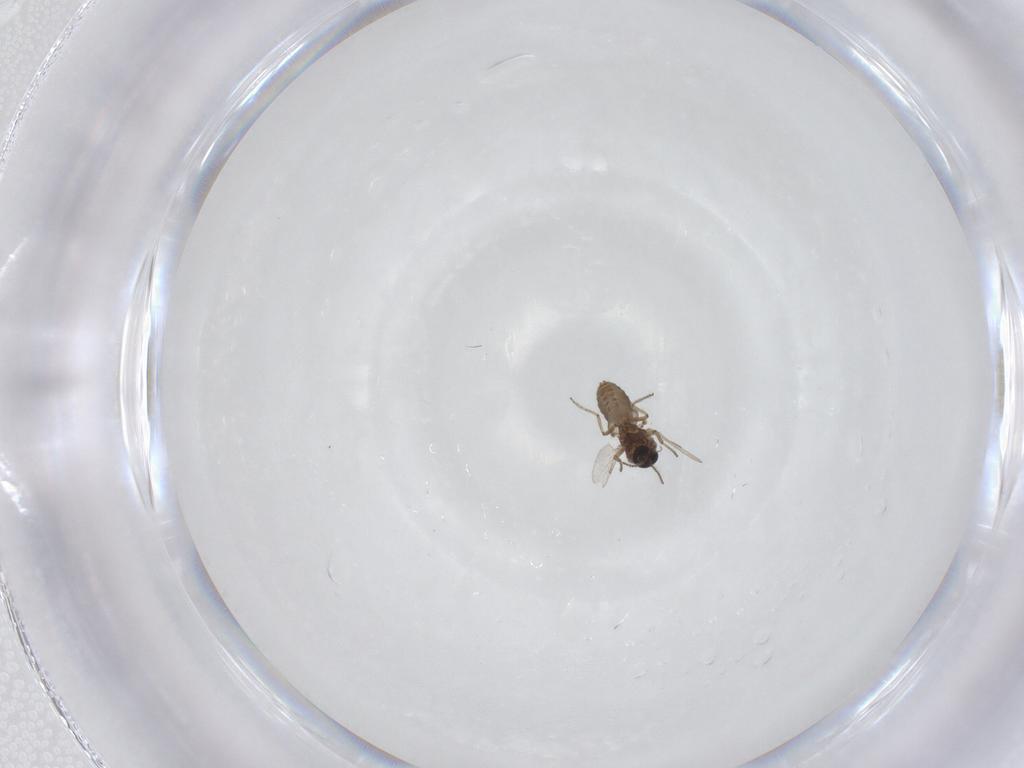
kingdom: Animalia
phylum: Arthropoda
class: Insecta
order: Diptera
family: Ceratopogonidae
